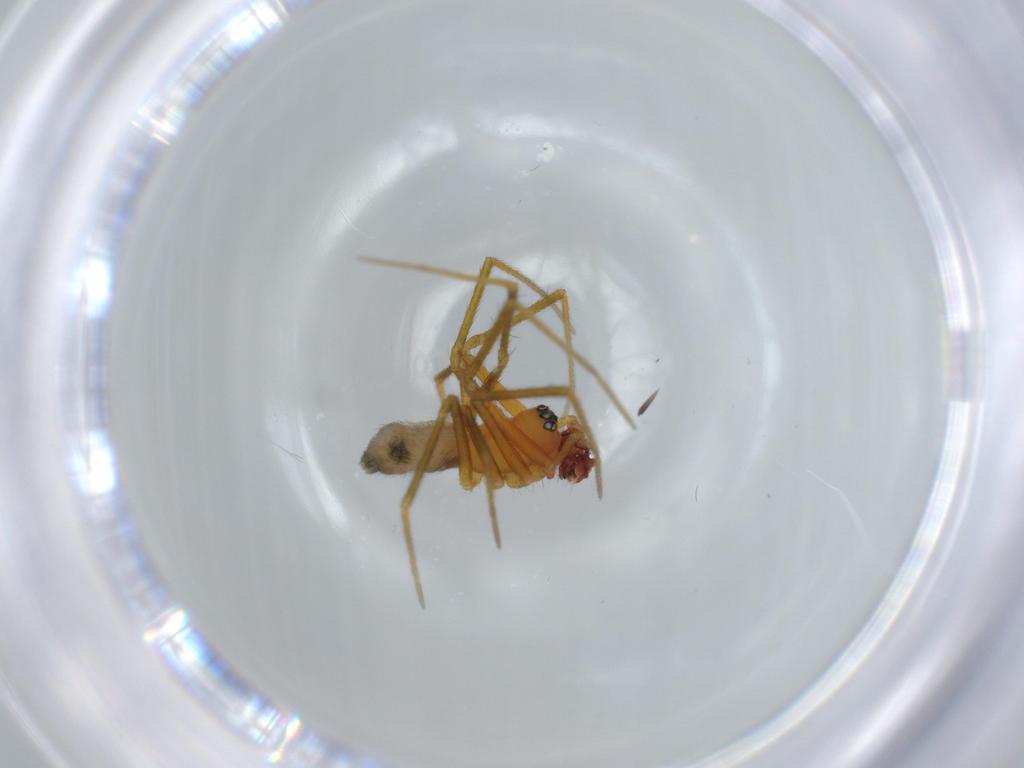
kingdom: Animalia
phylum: Arthropoda
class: Arachnida
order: Araneae
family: Linyphiidae
